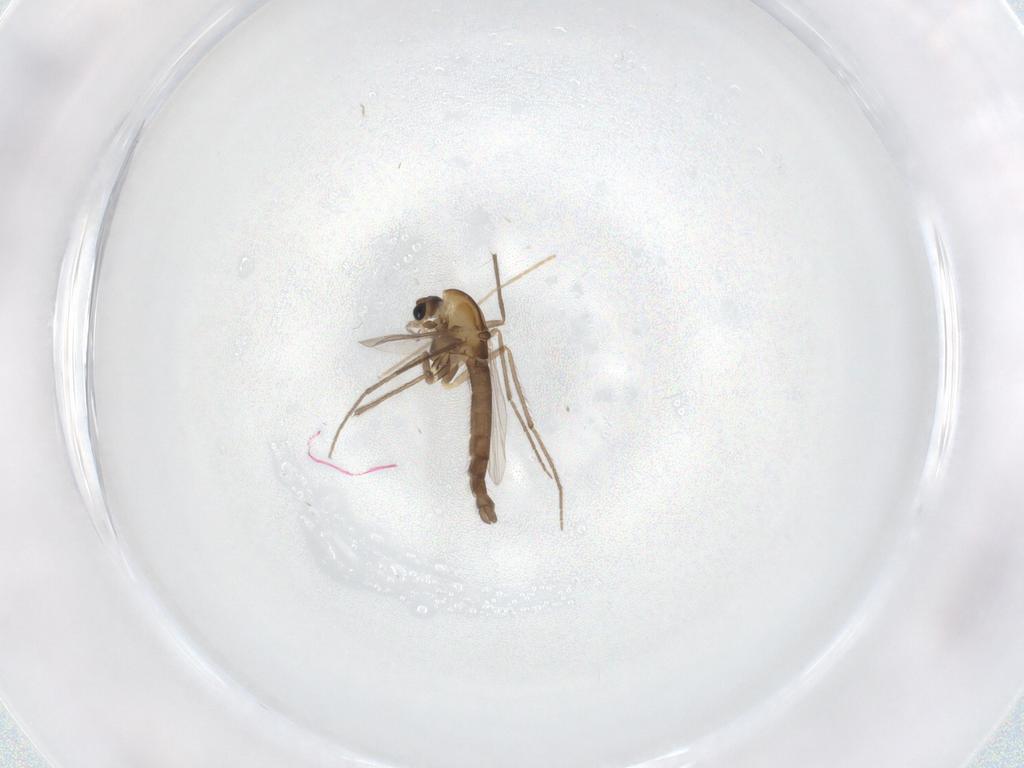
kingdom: Animalia
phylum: Arthropoda
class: Insecta
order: Diptera
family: Chironomidae
